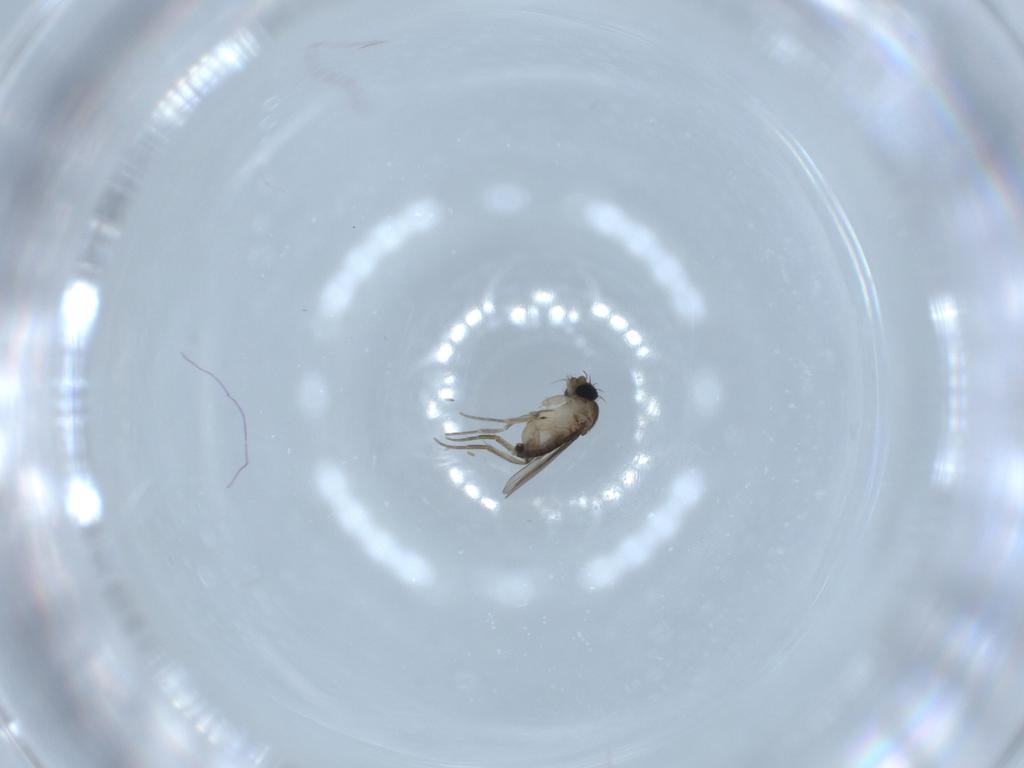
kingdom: Animalia
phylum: Arthropoda
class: Insecta
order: Diptera
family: Phoridae
